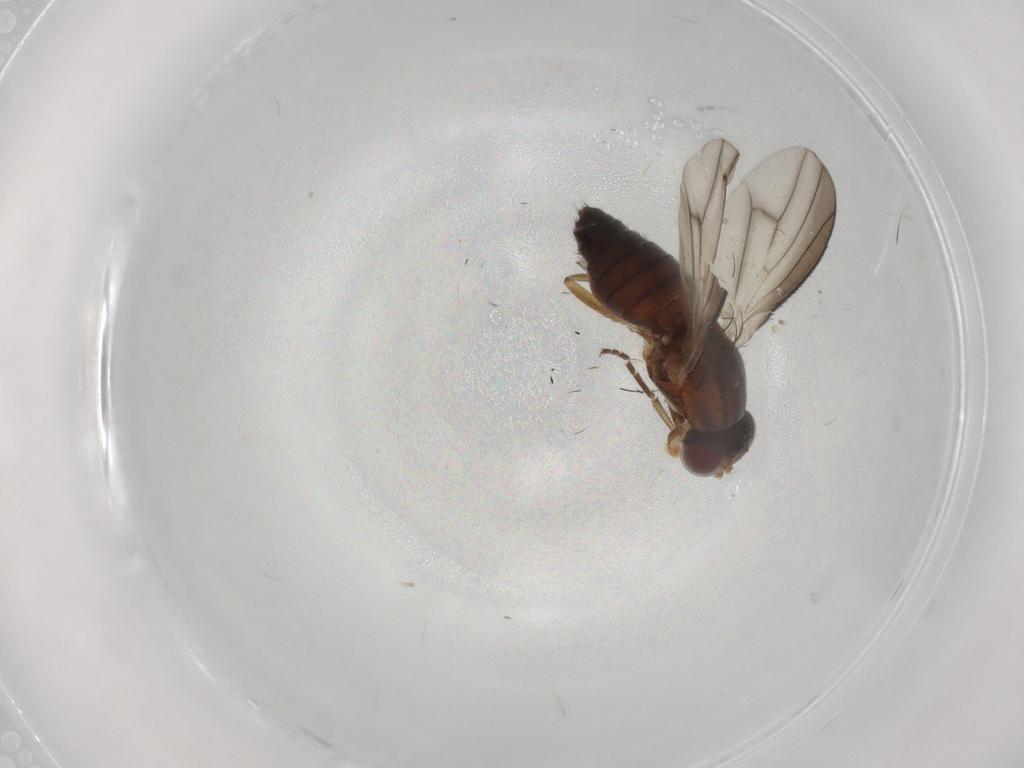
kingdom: Animalia
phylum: Arthropoda
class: Insecta
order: Diptera
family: Heleomyzidae
